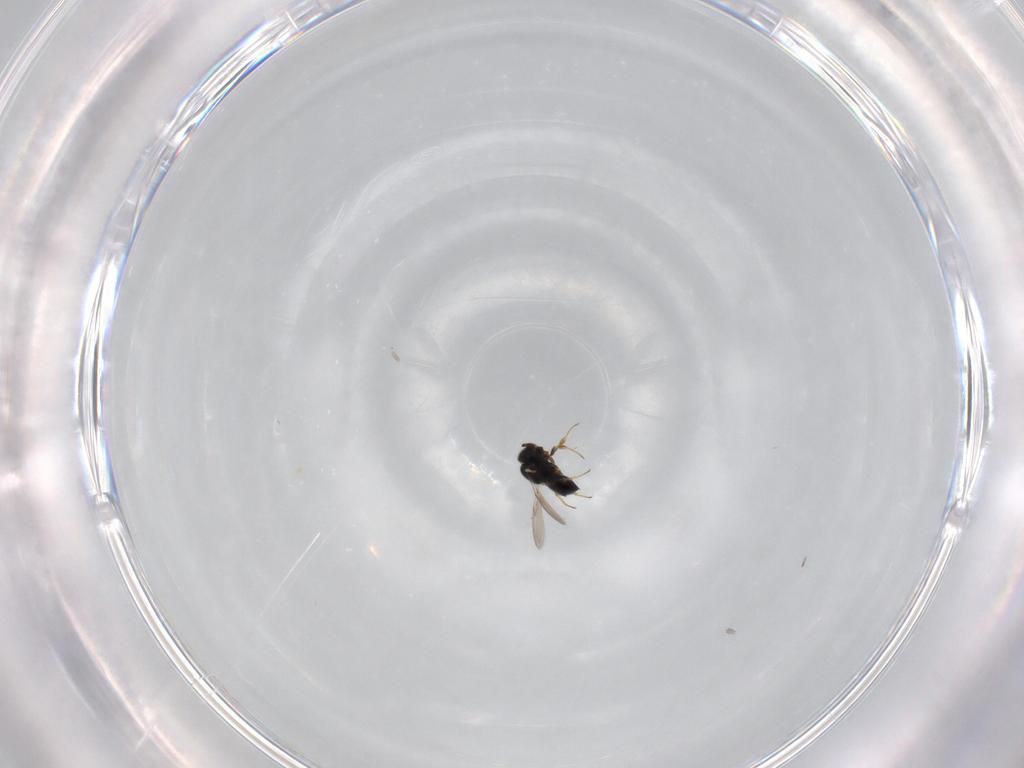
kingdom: Animalia
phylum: Arthropoda
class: Insecta
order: Hymenoptera
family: Scelionidae
